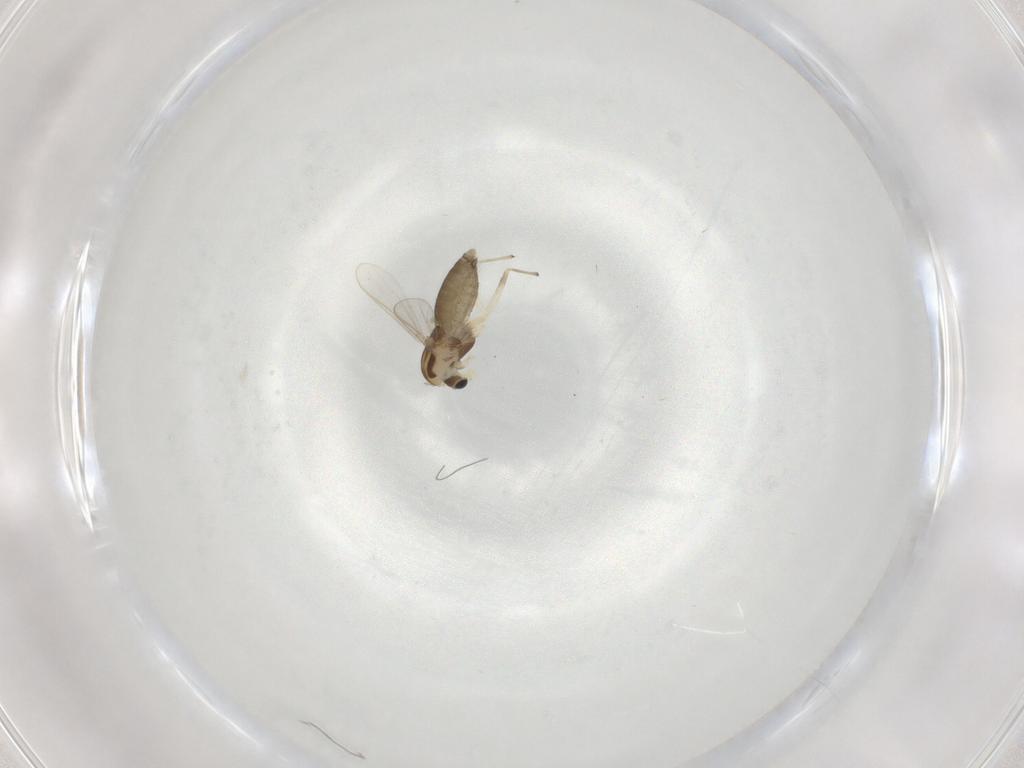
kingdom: Animalia
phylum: Arthropoda
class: Insecta
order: Diptera
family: Chironomidae
